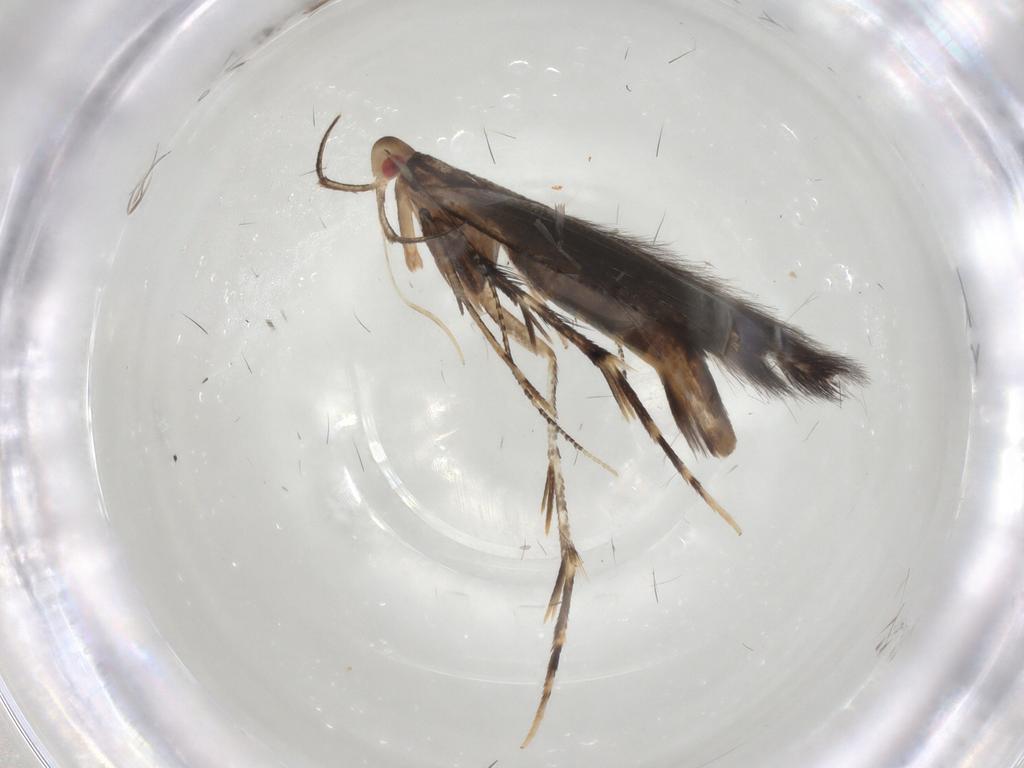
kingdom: Animalia
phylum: Arthropoda
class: Insecta
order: Lepidoptera
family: Cosmopterigidae
